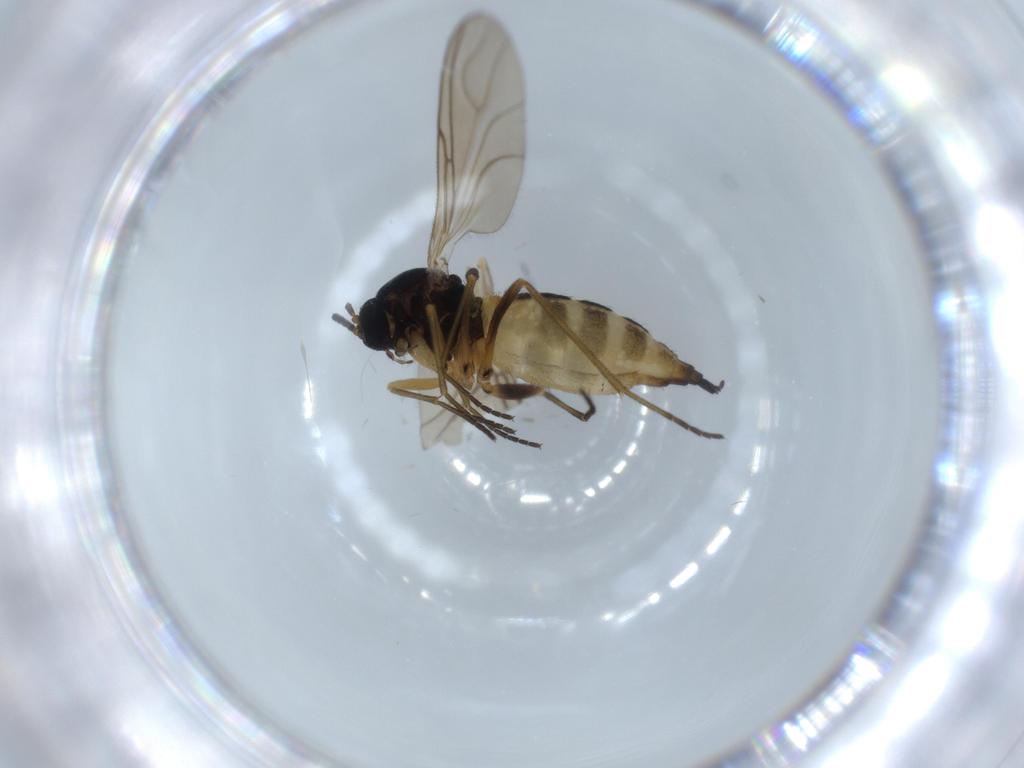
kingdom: Animalia
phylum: Arthropoda
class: Insecta
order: Diptera
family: Sciaridae
